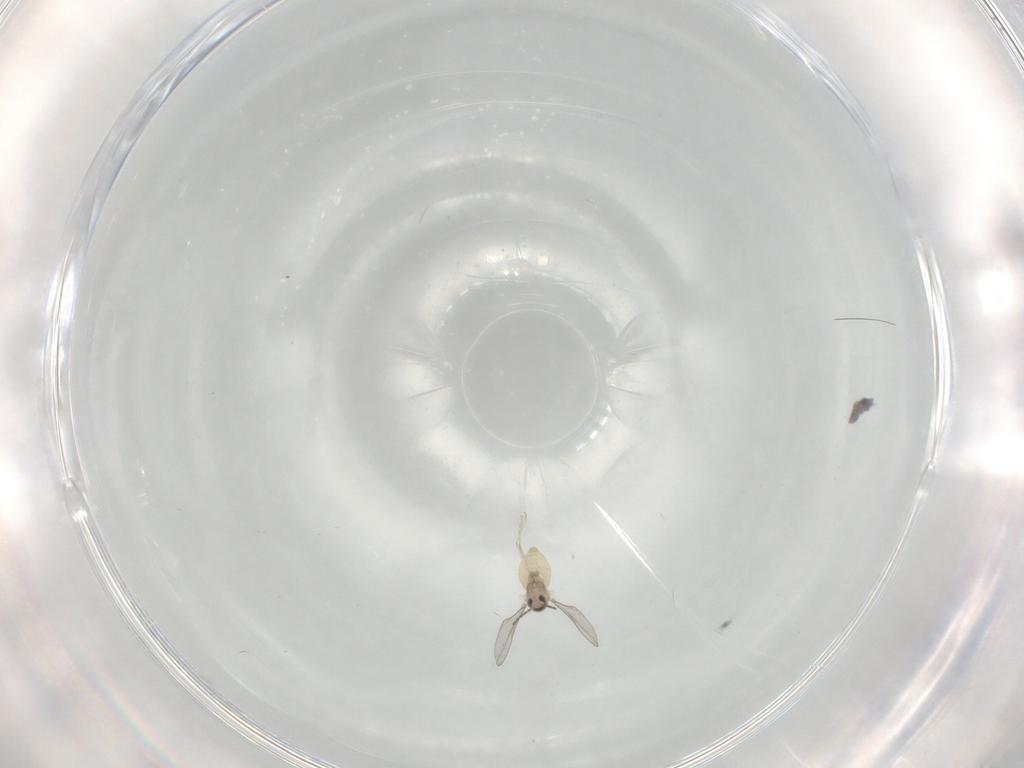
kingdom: Animalia
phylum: Arthropoda
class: Insecta
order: Diptera
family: Cecidomyiidae
